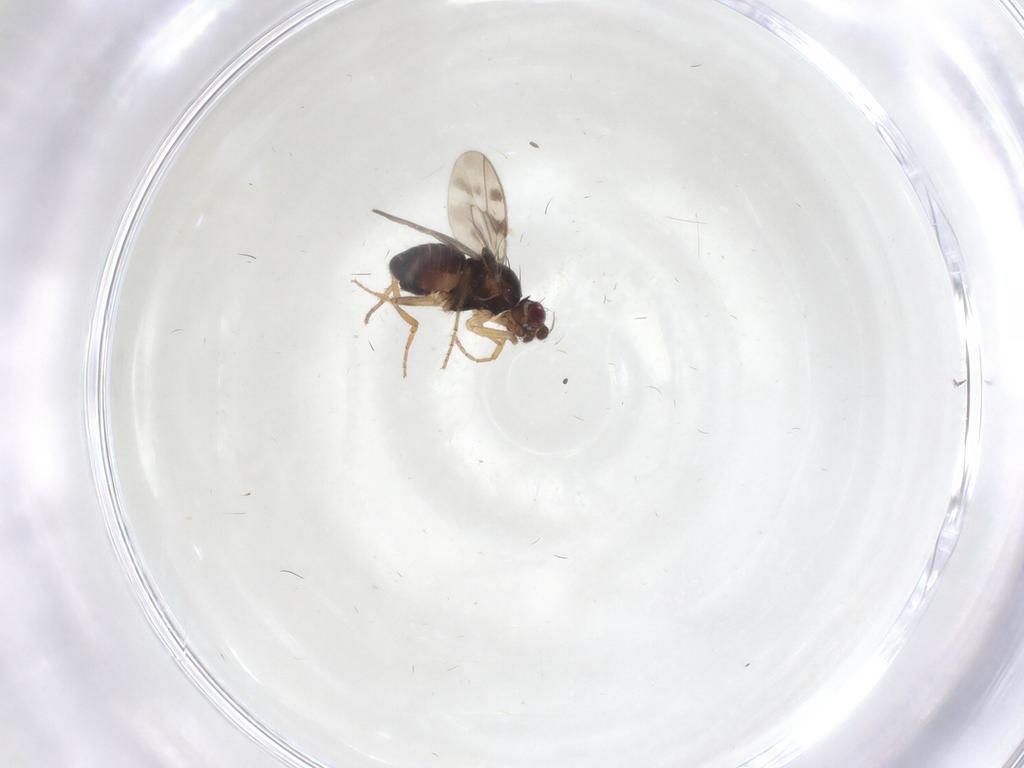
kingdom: Animalia
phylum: Arthropoda
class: Insecta
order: Diptera
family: Sphaeroceridae
